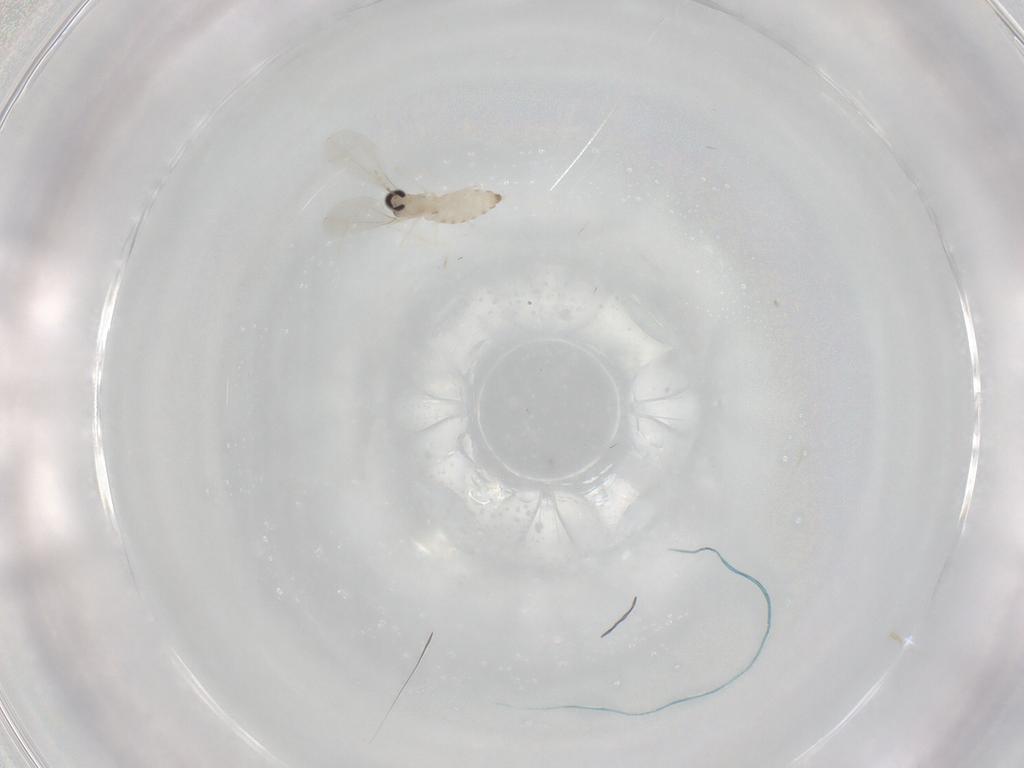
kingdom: Animalia
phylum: Arthropoda
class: Insecta
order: Diptera
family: Cecidomyiidae
